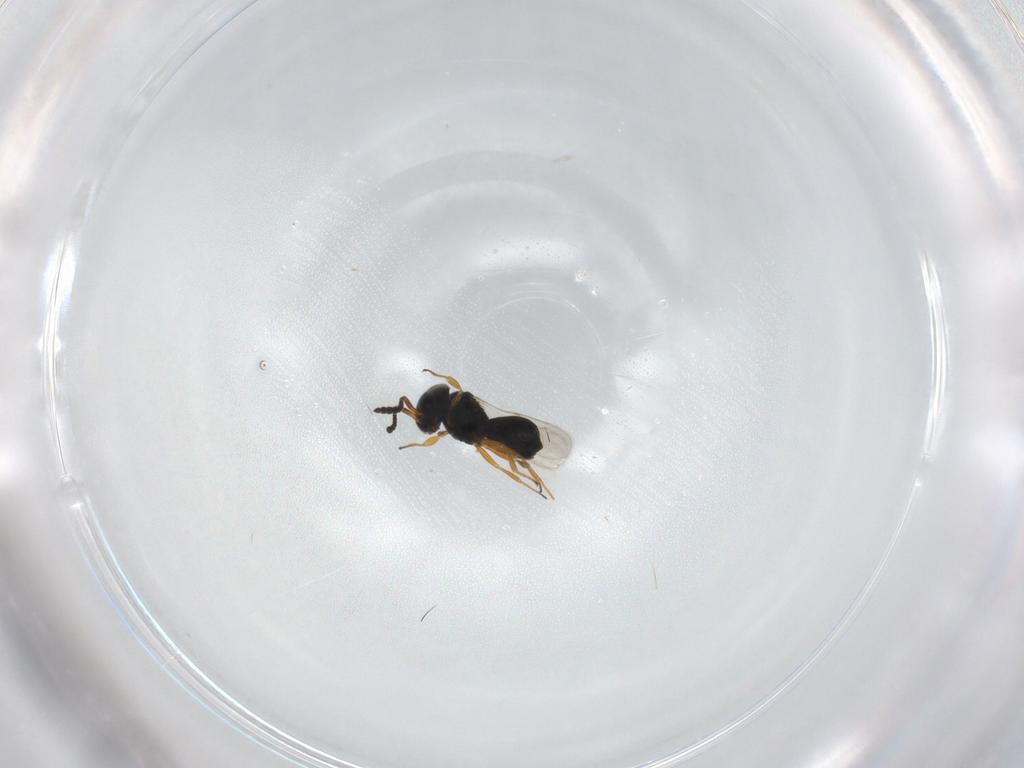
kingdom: Animalia
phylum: Arthropoda
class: Insecta
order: Hymenoptera
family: Scelionidae
